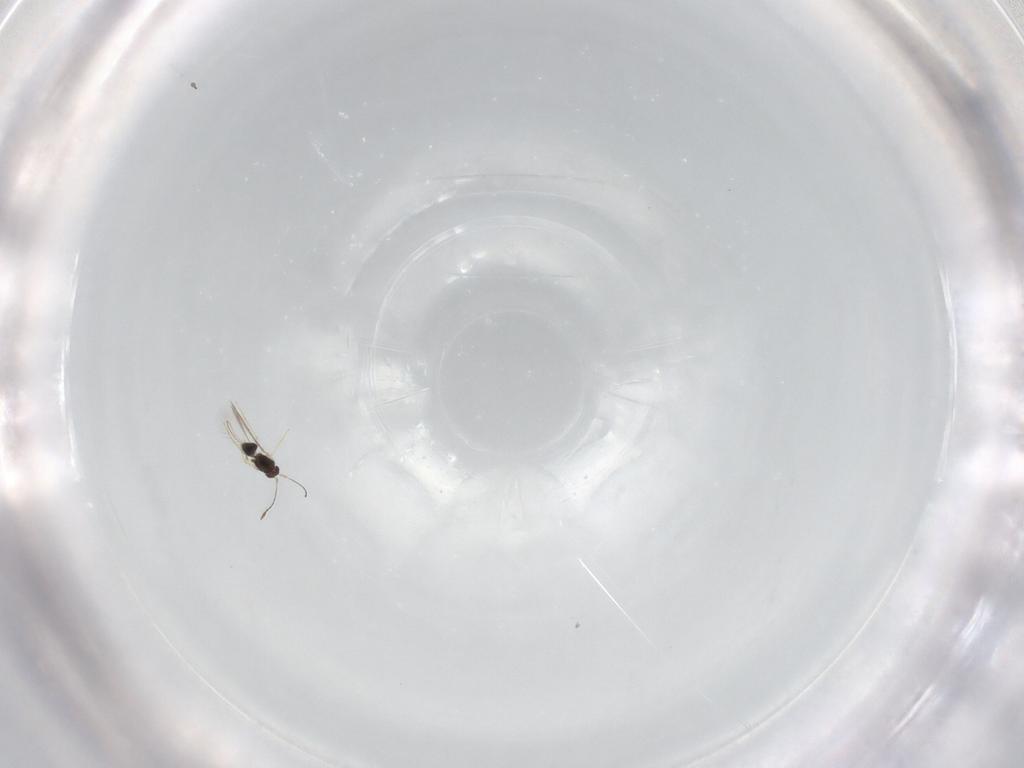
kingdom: Animalia
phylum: Arthropoda
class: Insecta
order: Hymenoptera
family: Mymaridae
